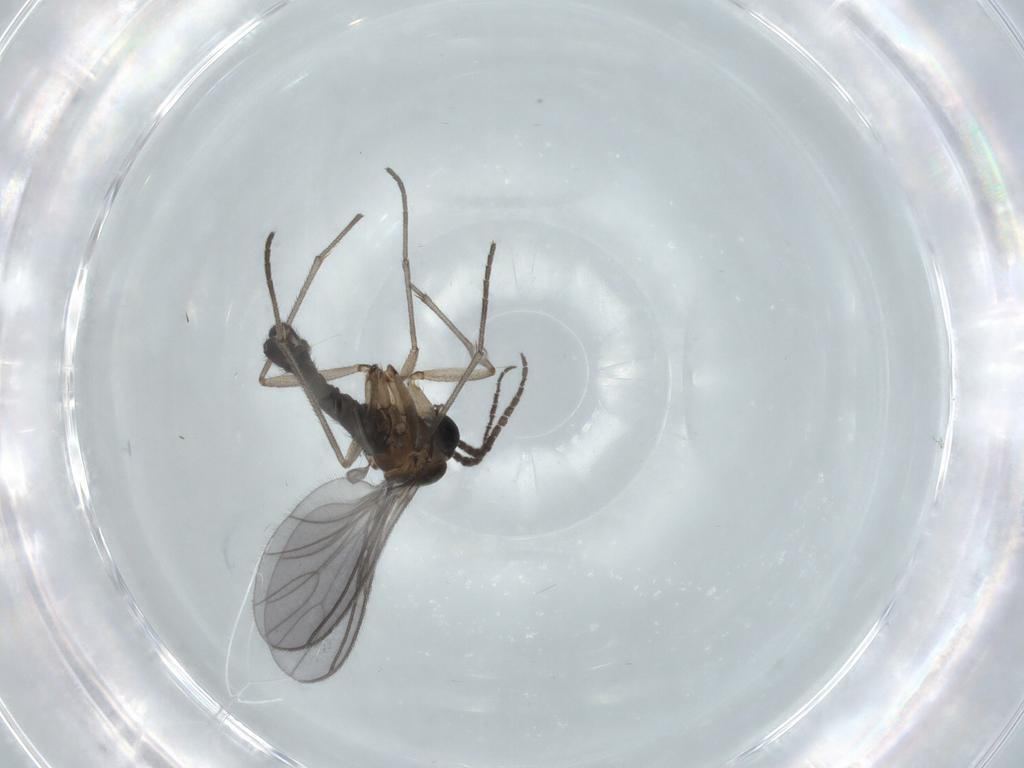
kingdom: Animalia
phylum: Arthropoda
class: Insecta
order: Diptera
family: Sciaridae
